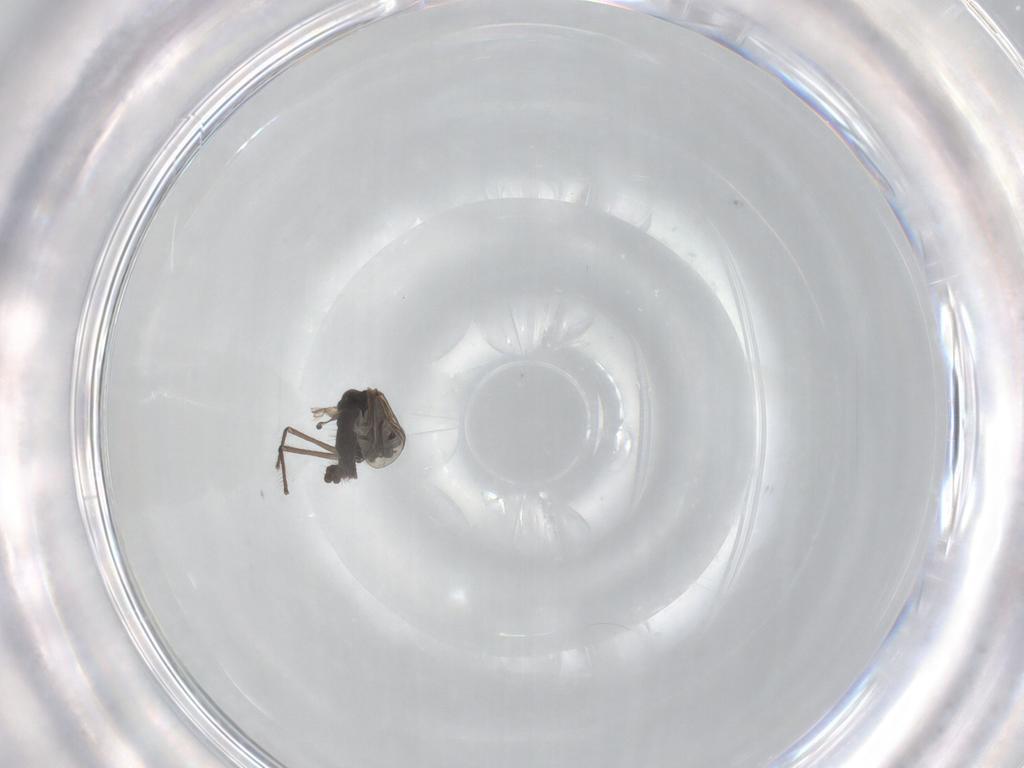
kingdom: Animalia
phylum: Arthropoda
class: Insecta
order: Diptera
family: Chironomidae
